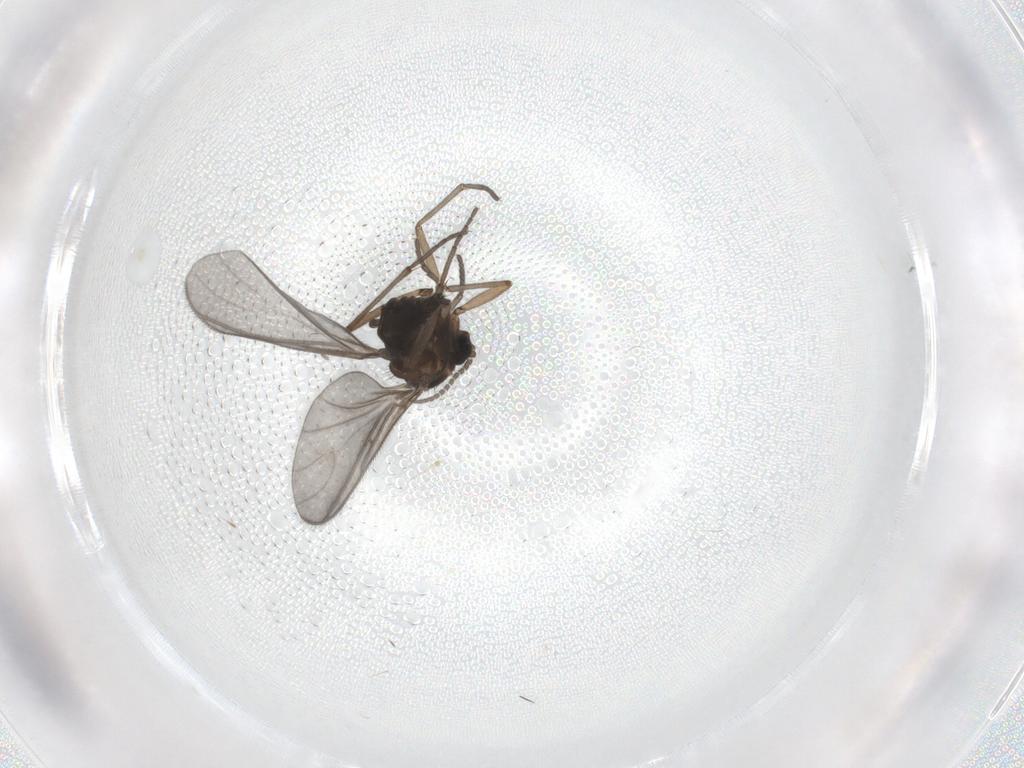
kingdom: Animalia
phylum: Arthropoda
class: Insecta
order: Diptera
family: Sciaridae
